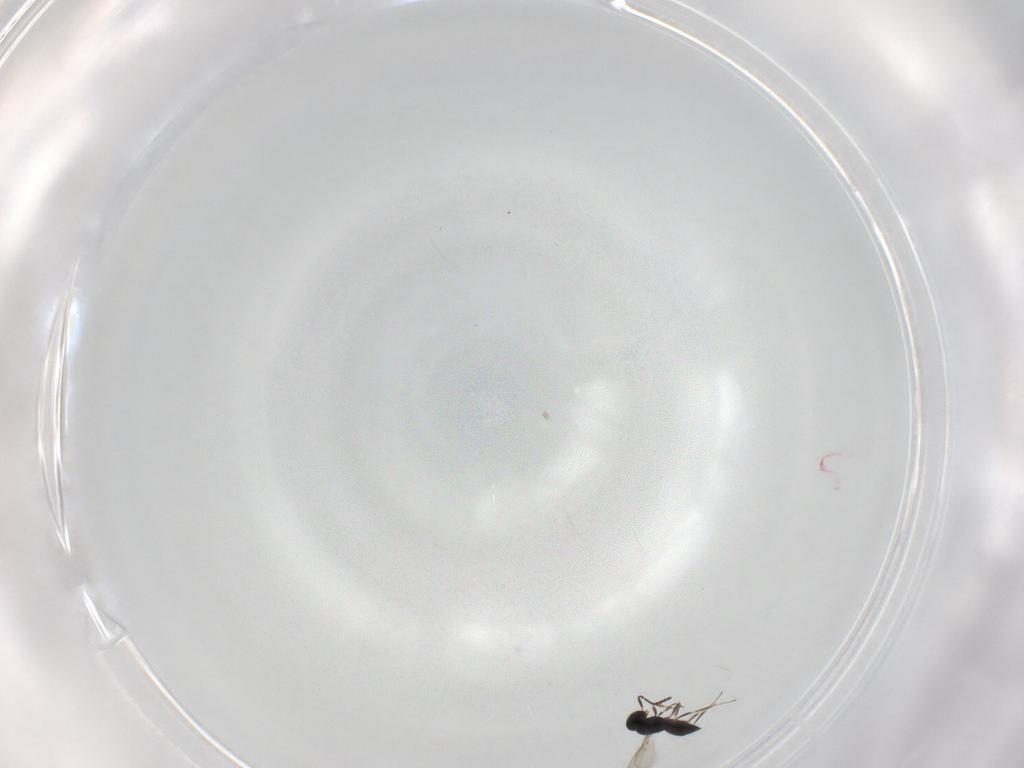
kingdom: Animalia
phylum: Arthropoda
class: Insecta
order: Hymenoptera
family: Scelionidae
